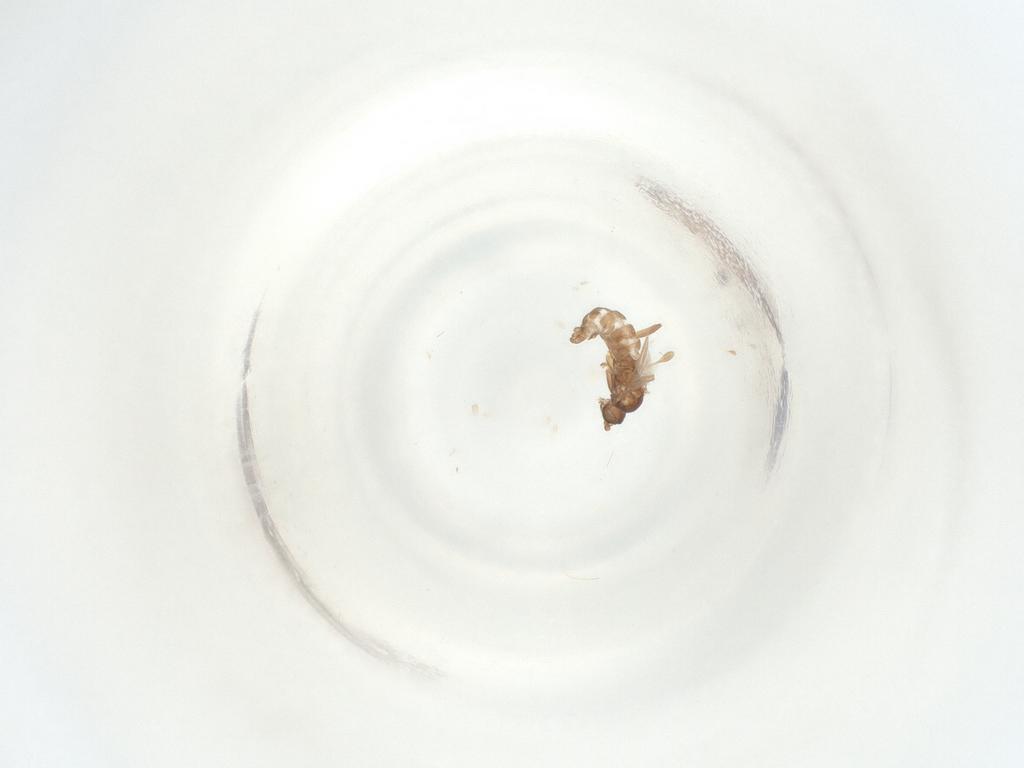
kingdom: Animalia
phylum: Arthropoda
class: Insecta
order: Diptera
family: Sciaridae
